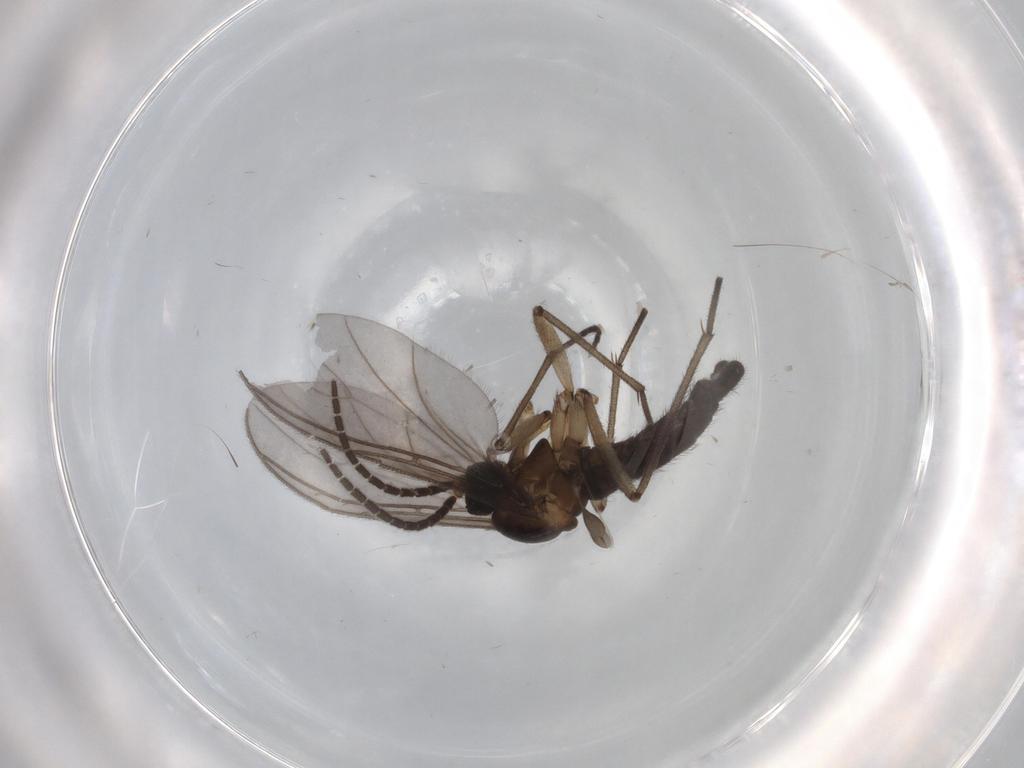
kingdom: Animalia
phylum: Arthropoda
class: Insecta
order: Diptera
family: Sciaridae
